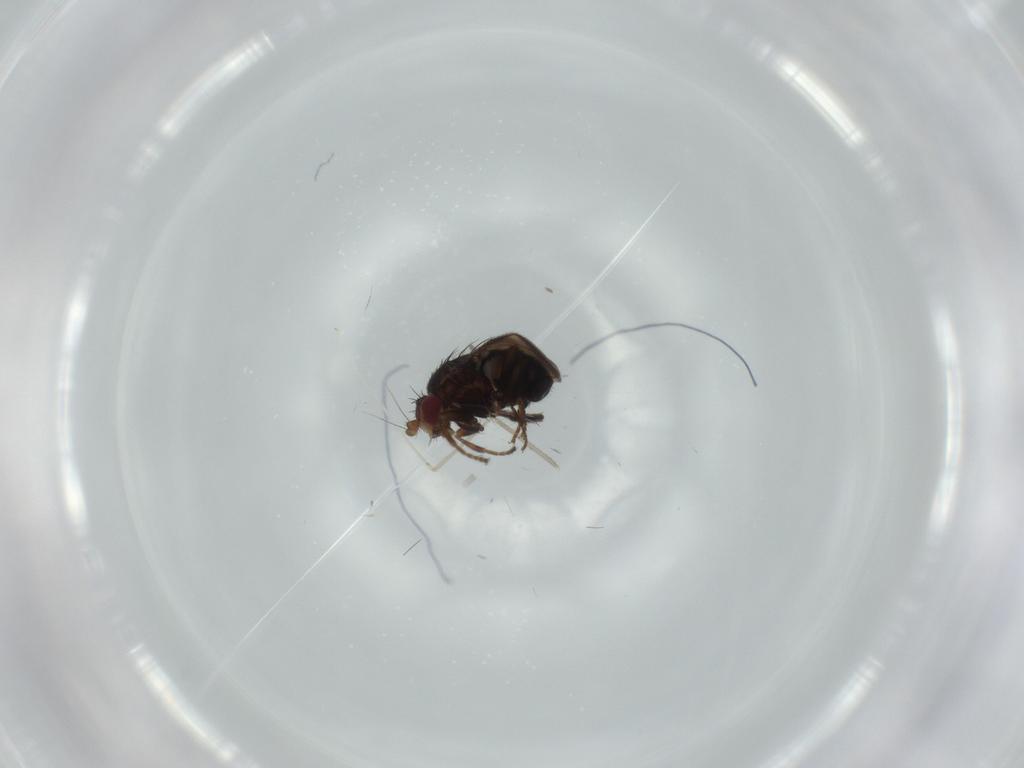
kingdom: Animalia
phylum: Arthropoda
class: Insecta
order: Diptera
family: Cecidomyiidae
